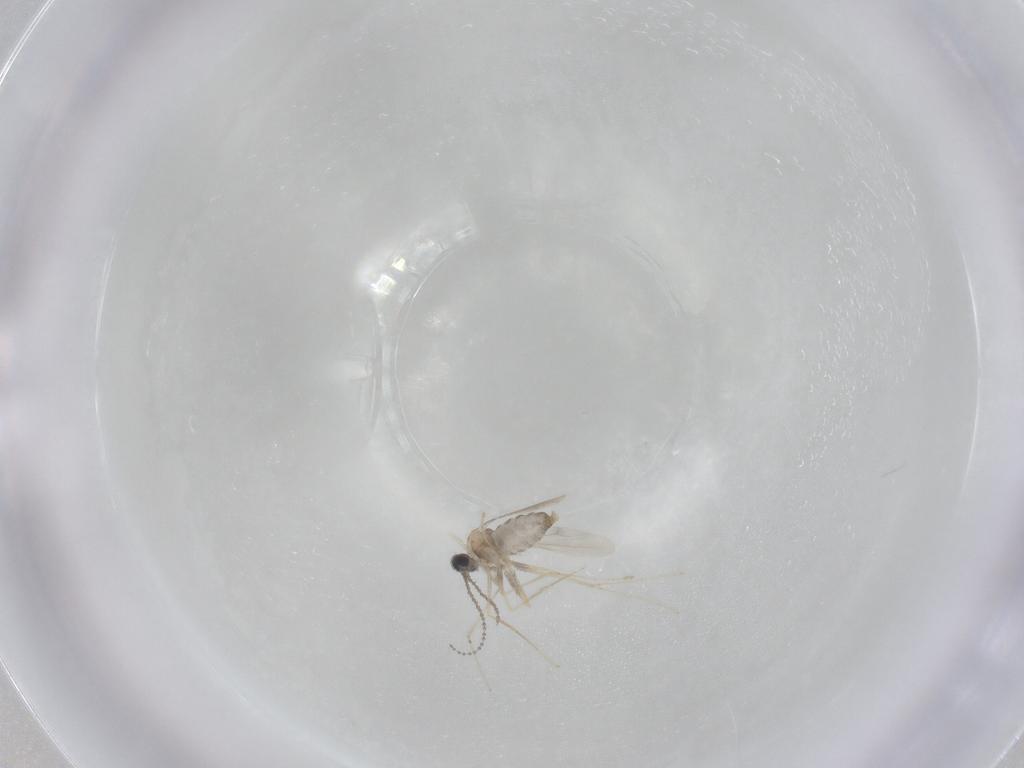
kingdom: Animalia
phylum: Arthropoda
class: Insecta
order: Diptera
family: Cecidomyiidae
